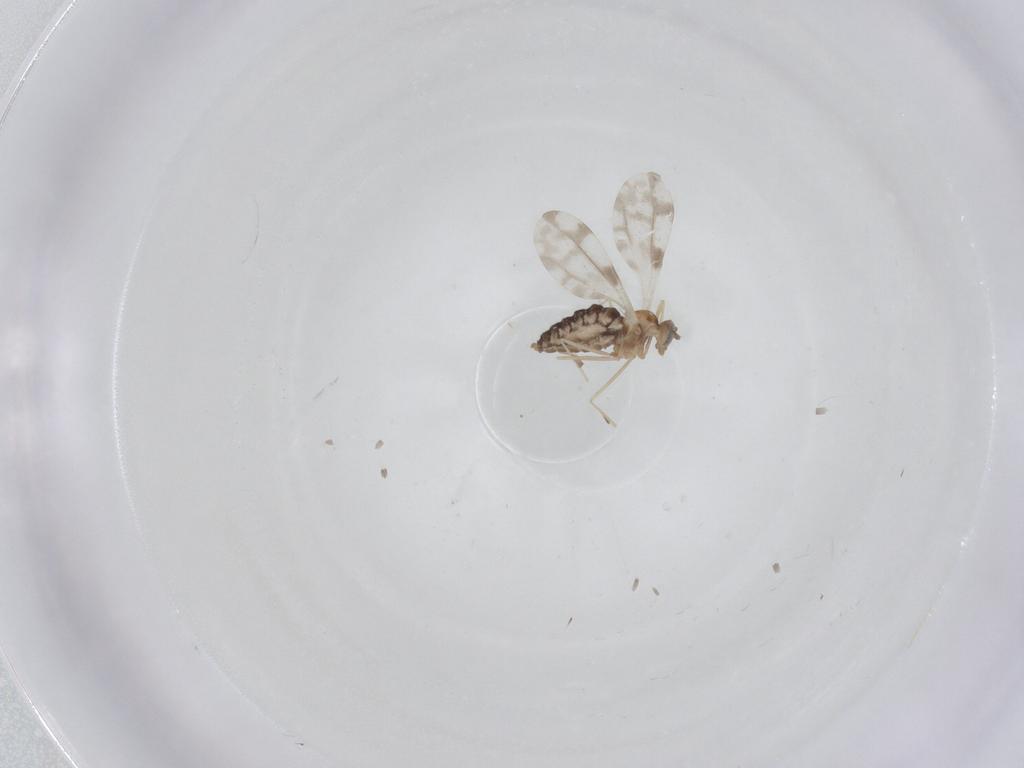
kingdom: Animalia
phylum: Arthropoda
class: Insecta
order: Diptera
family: Cecidomyiidae
